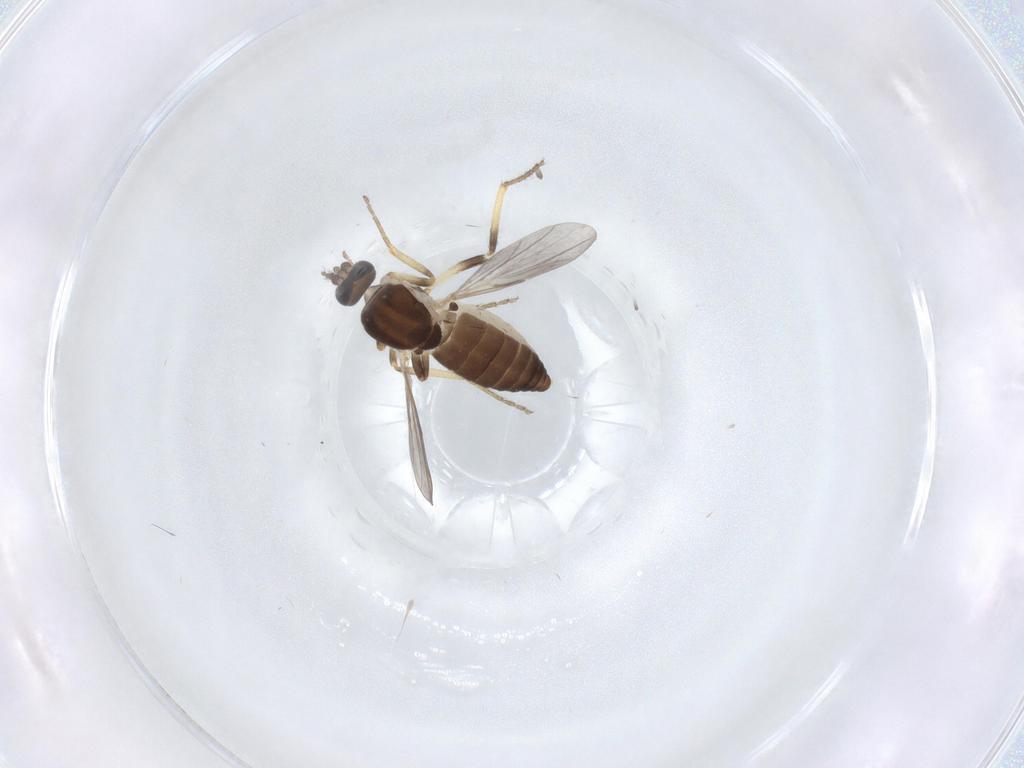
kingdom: Animalia
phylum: Arthropoda
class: Insecta
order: Diptera
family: Ceratopogonidae
